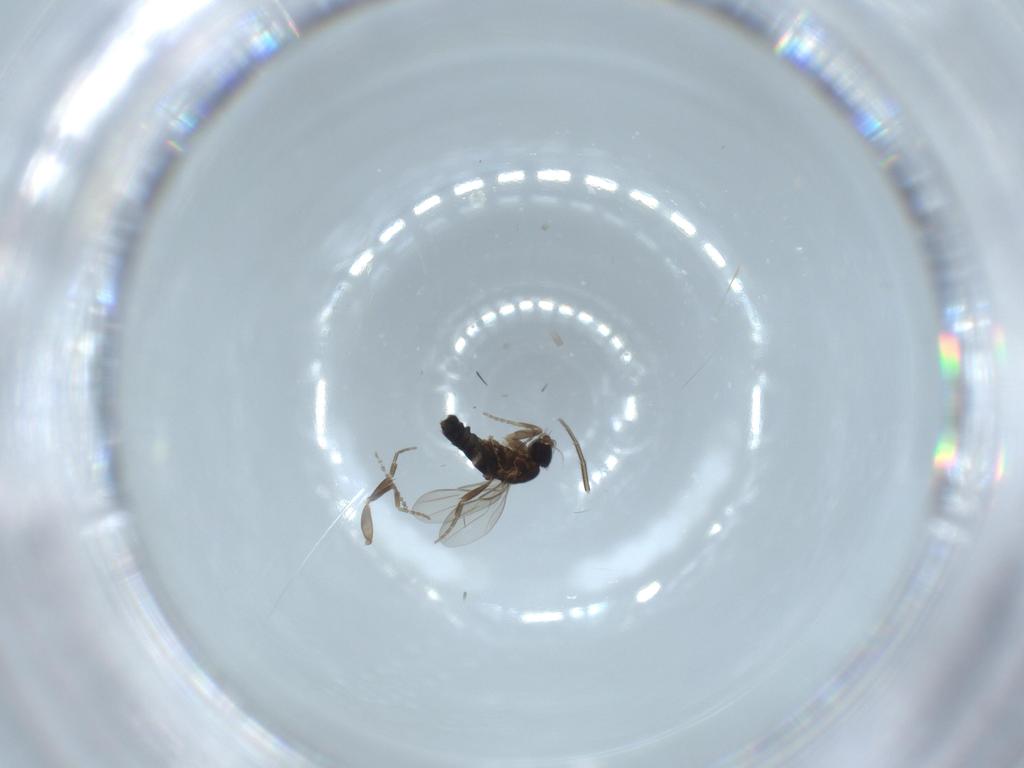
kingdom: Animalia
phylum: Arthropoda
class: Insecta
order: Diptera
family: Phoridae
